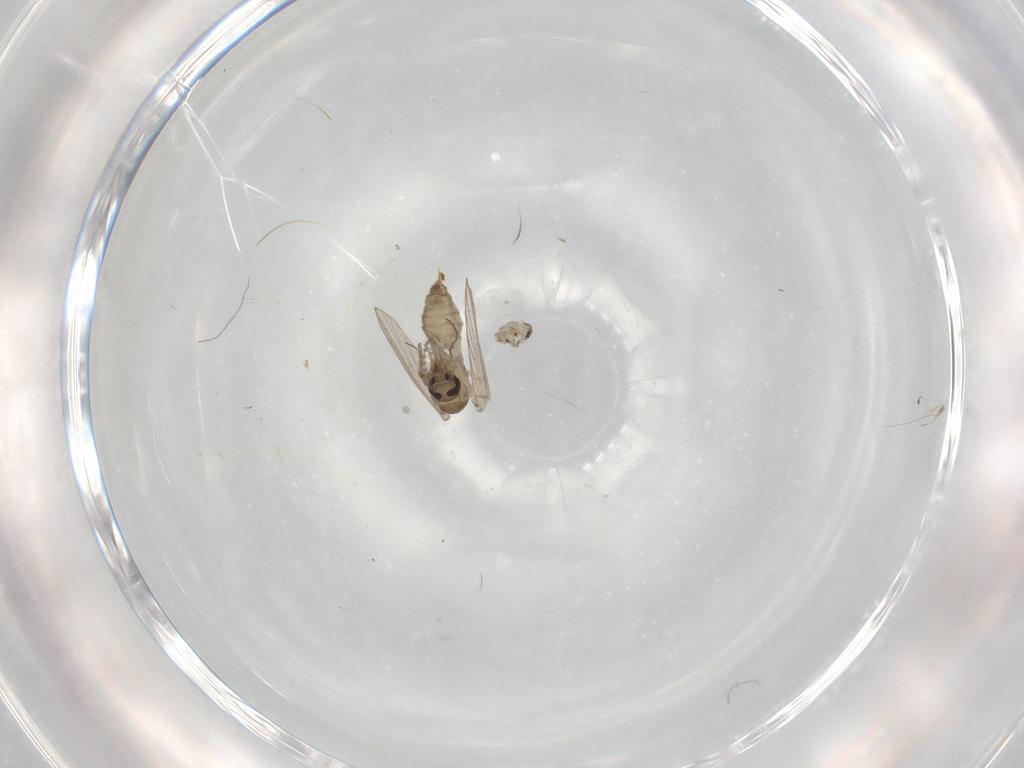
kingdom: Animalia
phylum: Arthropoda
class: Insecta
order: Diptera
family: Psychodidae
